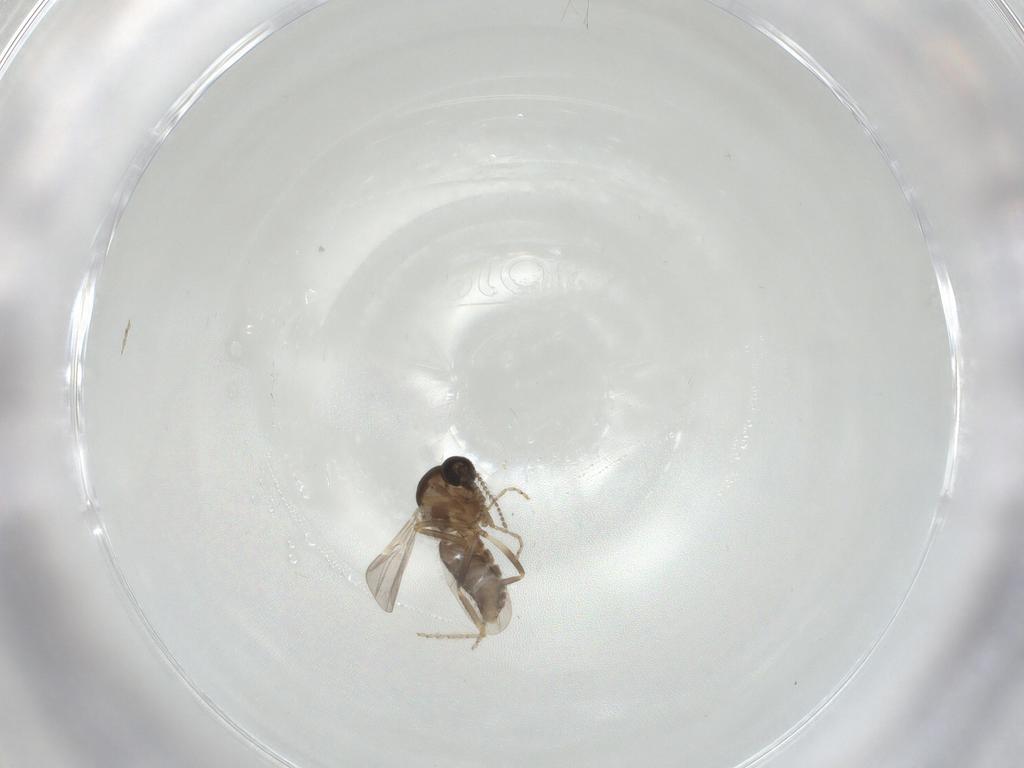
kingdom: Animalia
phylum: Arthropoda
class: Insecta
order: Diptera
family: Ceratopogonidae
